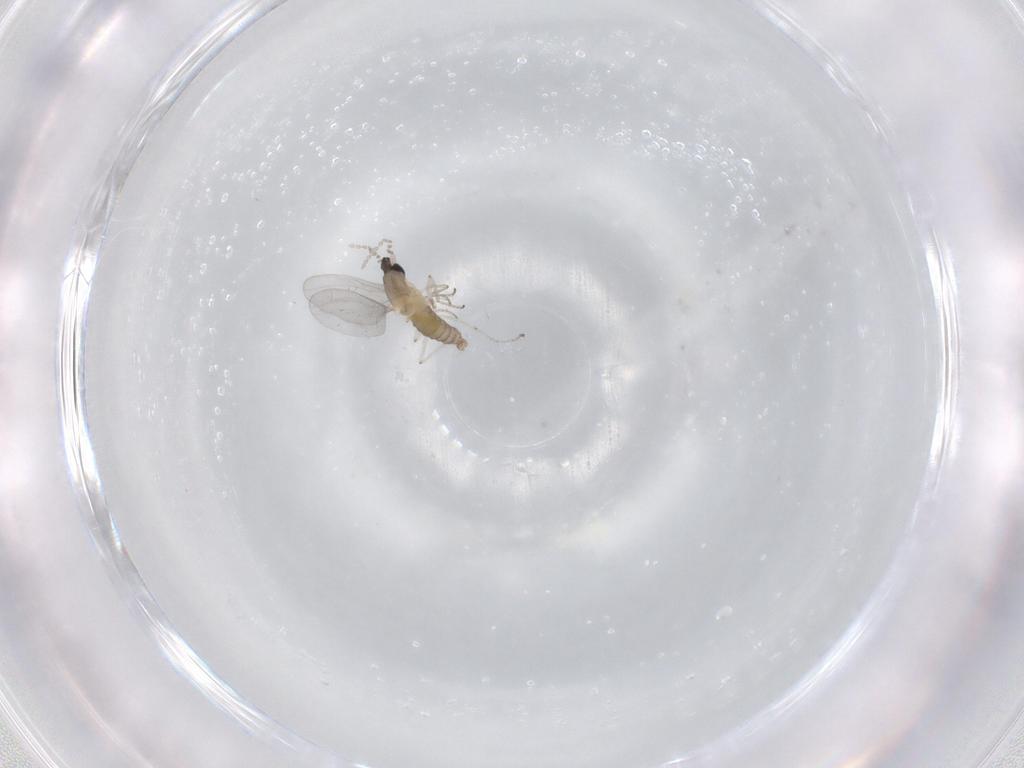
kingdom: Animalia
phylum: Arthropoda
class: Insecta
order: Diptera
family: Cecidomyiidae
